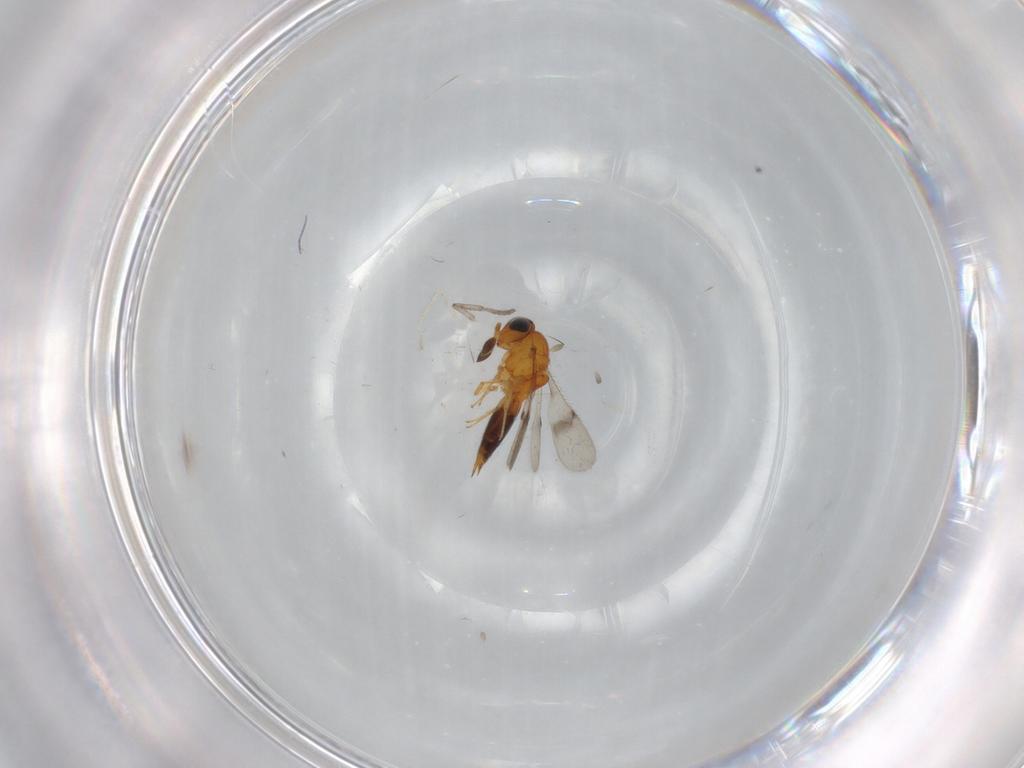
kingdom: Animalia
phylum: Arthropoda
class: Insecta
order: Hymenoptera
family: Scelionidae
